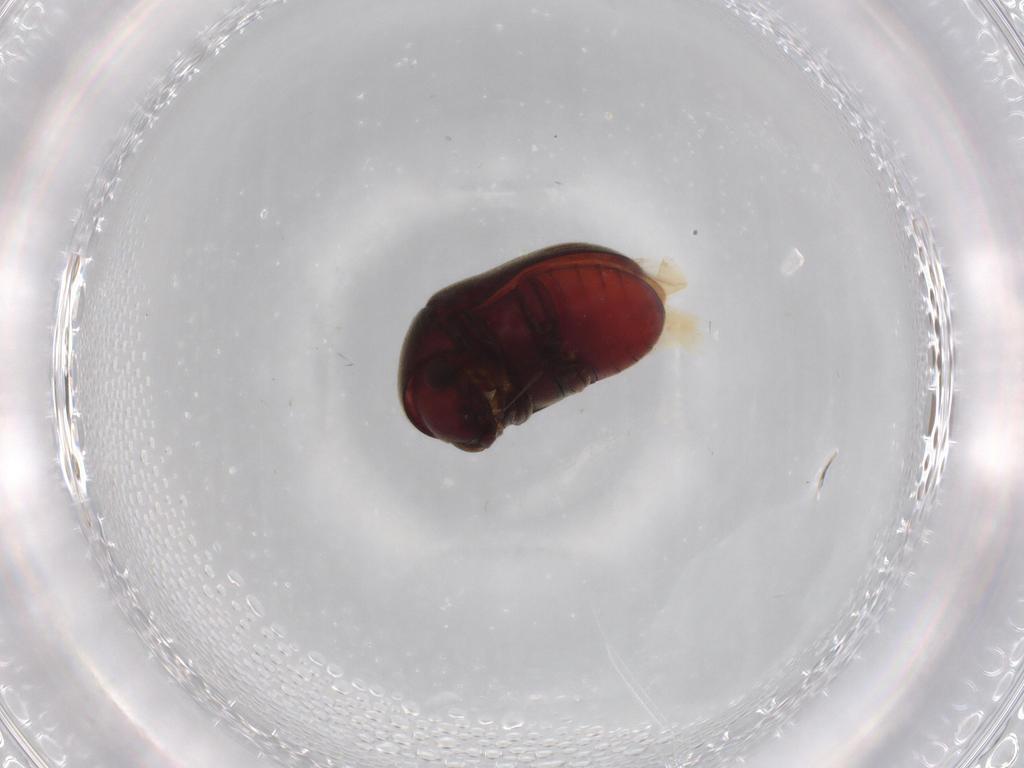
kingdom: Animalia
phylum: Arthropoda
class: Insecta
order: Coleoptera
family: Ptinidae
